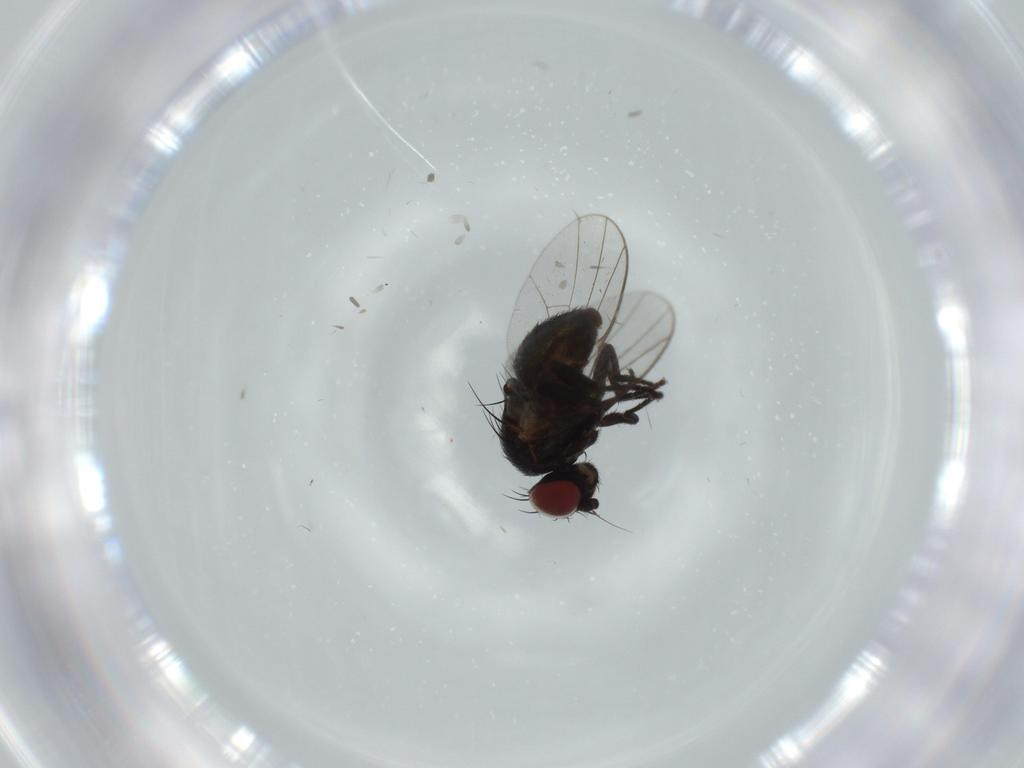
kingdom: Animalia
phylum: Arthropoda
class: Insecta
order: Diptera
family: Agromyzidae
